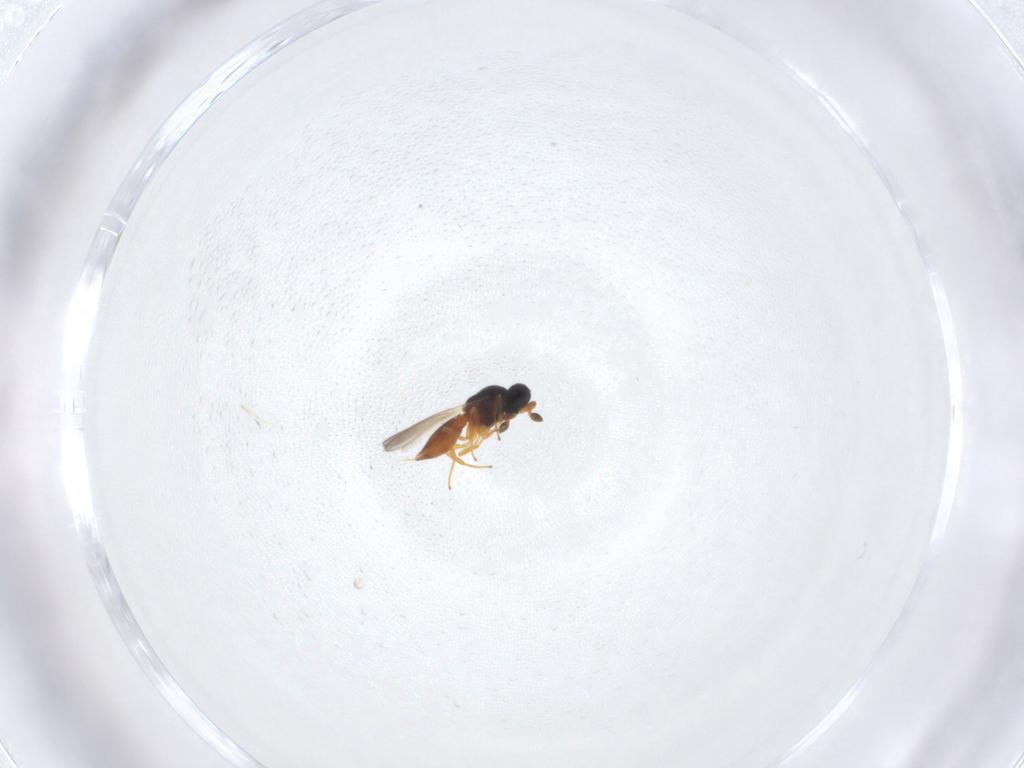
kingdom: Animalia
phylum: Arthropoda
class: Insecta
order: Hymenoptera
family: Platygastridae
